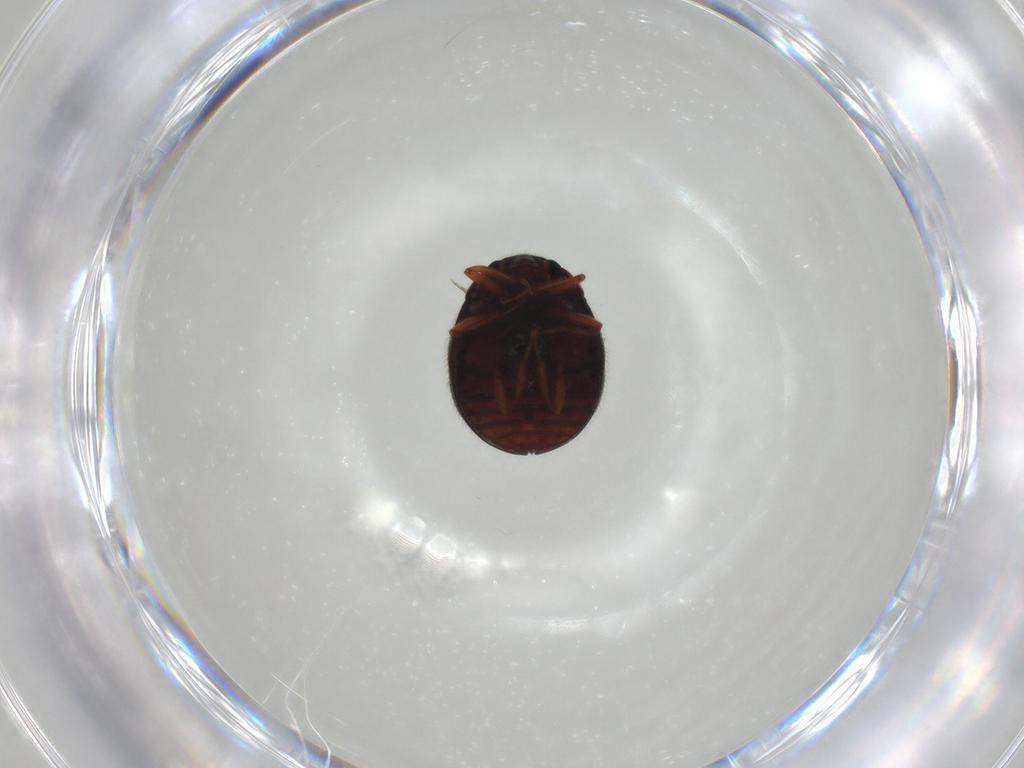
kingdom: Animalia
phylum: Arthropoda
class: Insecta
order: Coleoptera
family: Sphindidae
